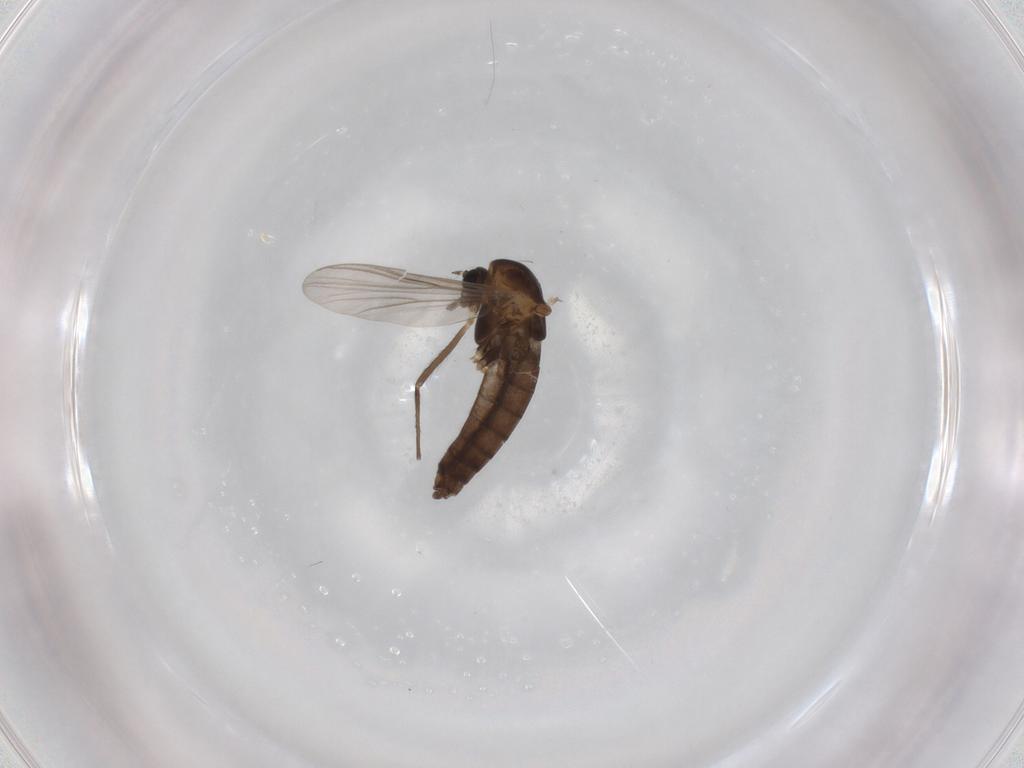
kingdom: Animalia
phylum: Arthropoda
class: Insecta
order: Diptera
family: Chironomidae
